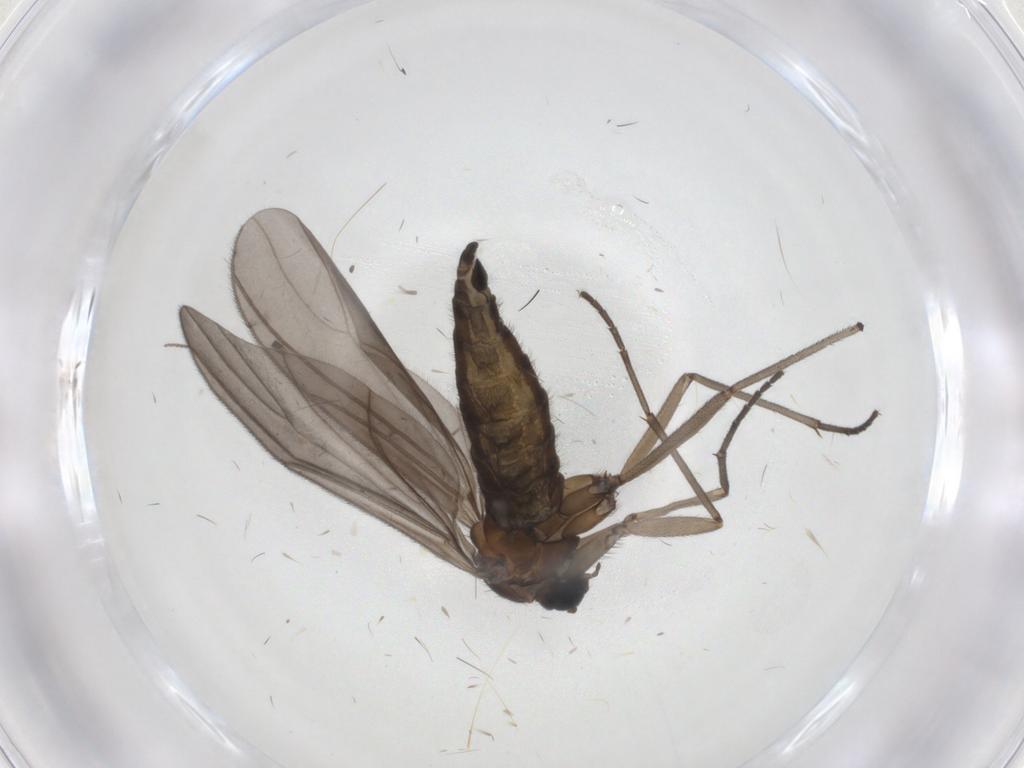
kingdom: Animalia
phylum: Arthropoda
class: Insecta
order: Diptera
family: Sciaridae
